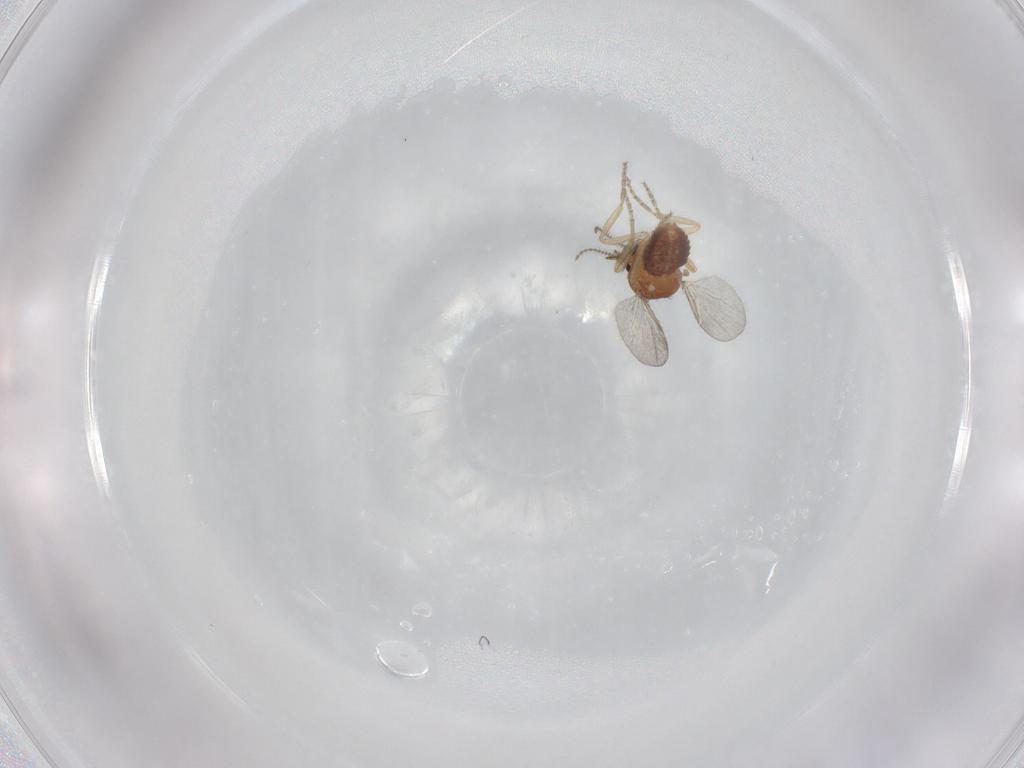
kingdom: Animalia
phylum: Arthropoda
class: Insecta
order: Diptera
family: Ceratopogonidae
